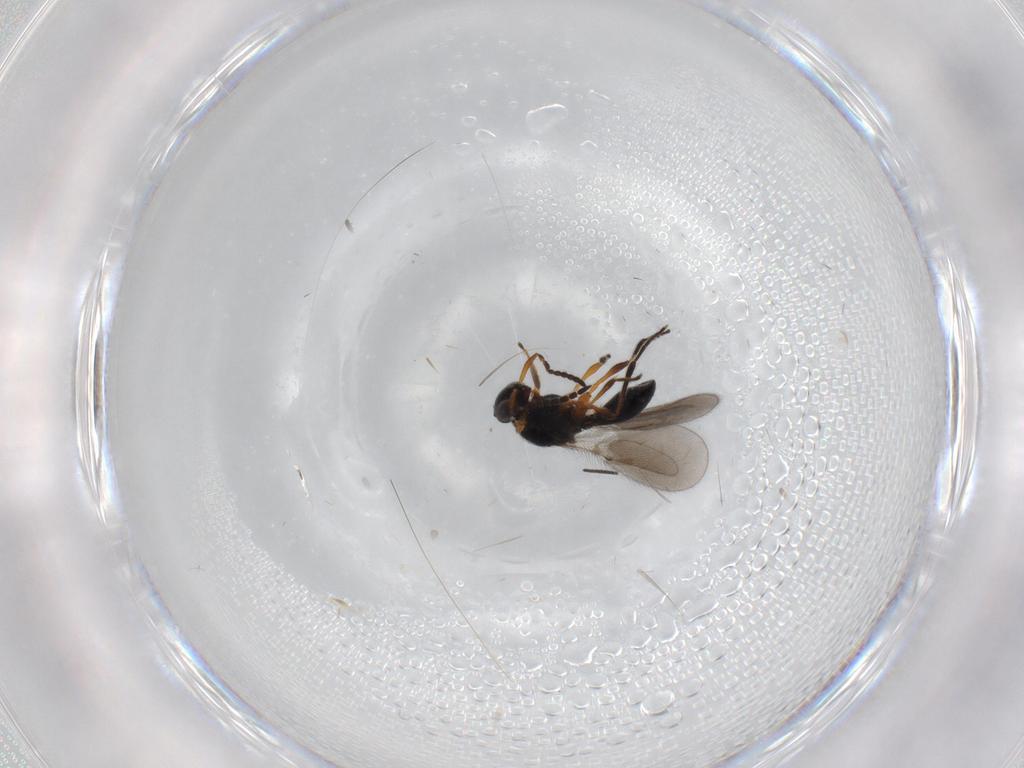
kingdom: Animalia
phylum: Arthropoda
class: Insecta
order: Hymenoptera
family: Platygastridae
